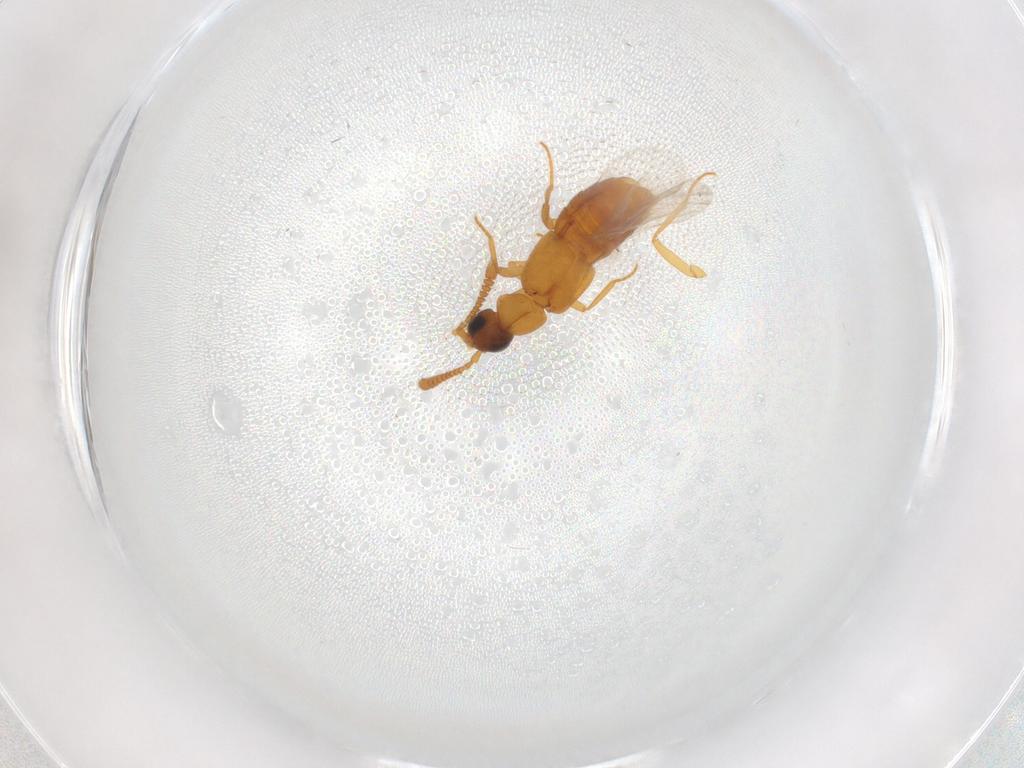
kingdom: Animalia
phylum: Arthropoda
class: Insecta
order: Coleoptera
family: Staphylinidae
